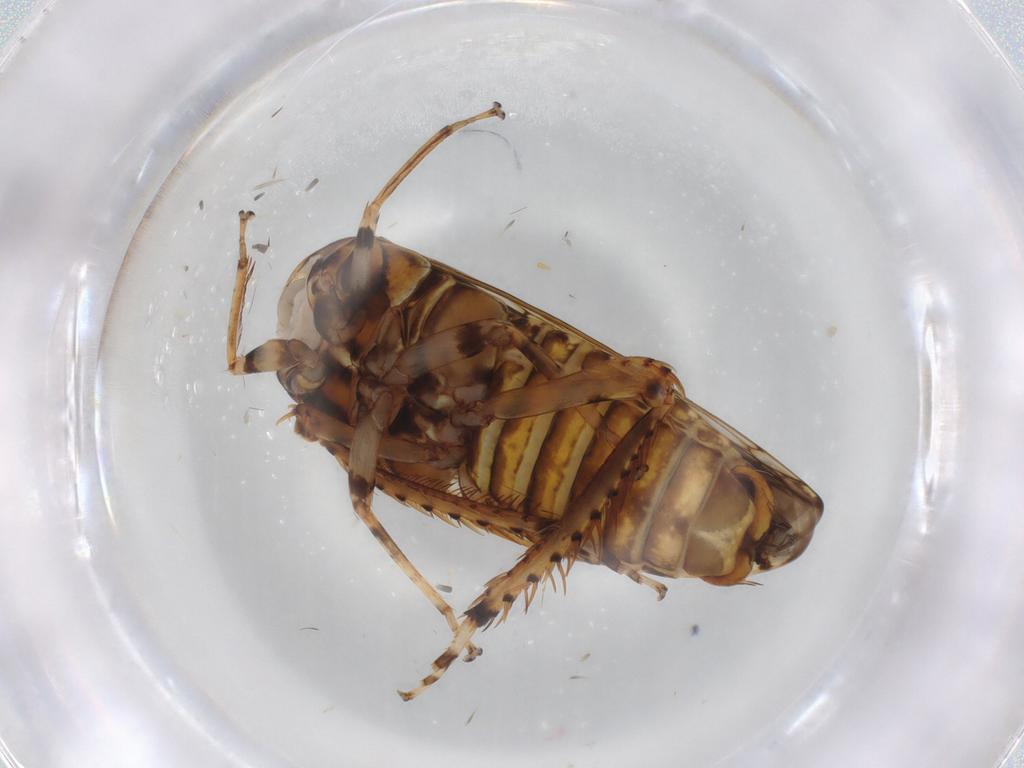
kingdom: Animalia
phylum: Arthropoda
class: Insecta
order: Hemiptera
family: Cicadellidae
